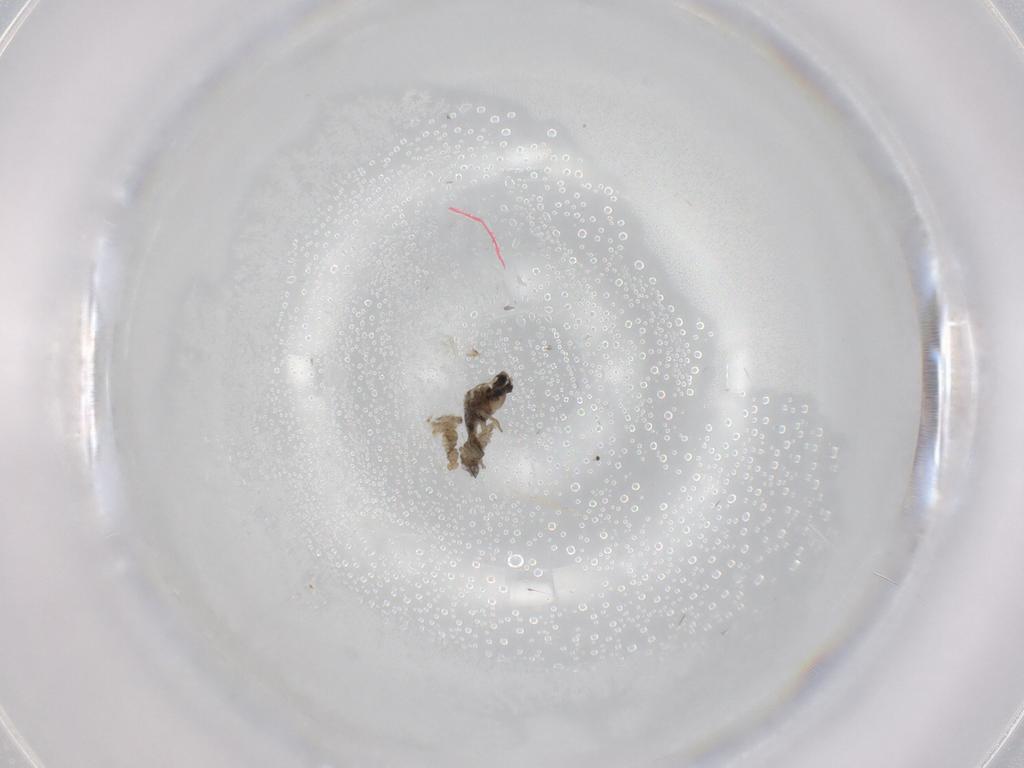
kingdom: Animalia
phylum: Arthropoda
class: Insecta
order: Diptera
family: Cecidomyiidae
